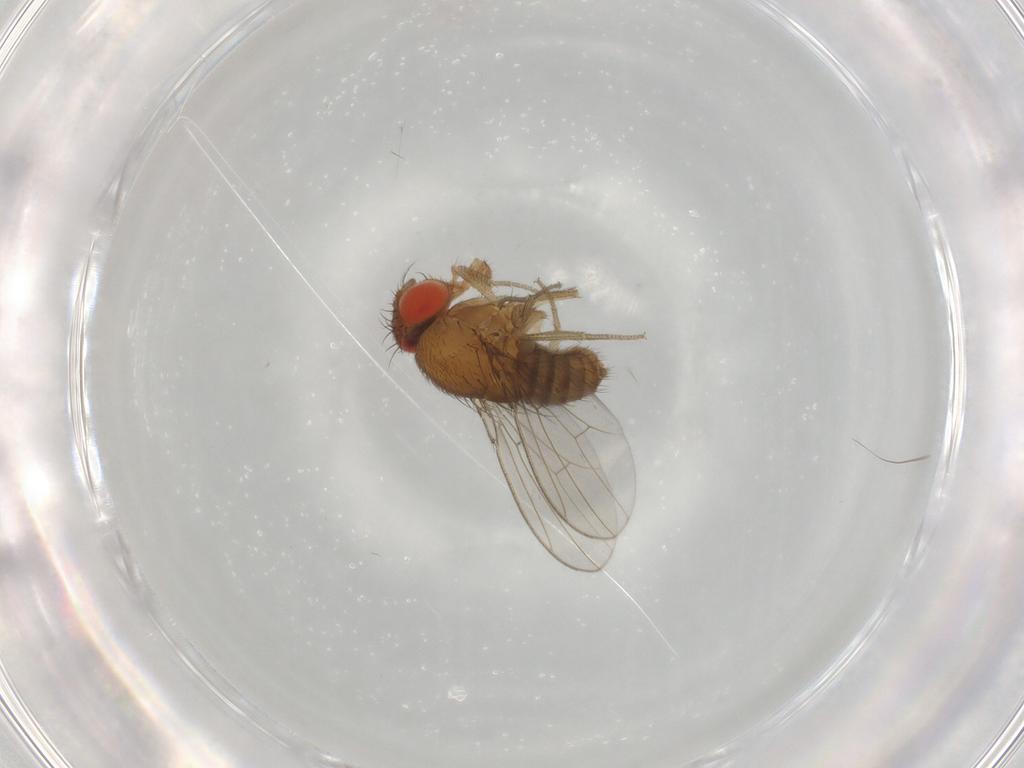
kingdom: Animalia
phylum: Arthropoda
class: Insecta
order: Diptera
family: Drosophilidae
